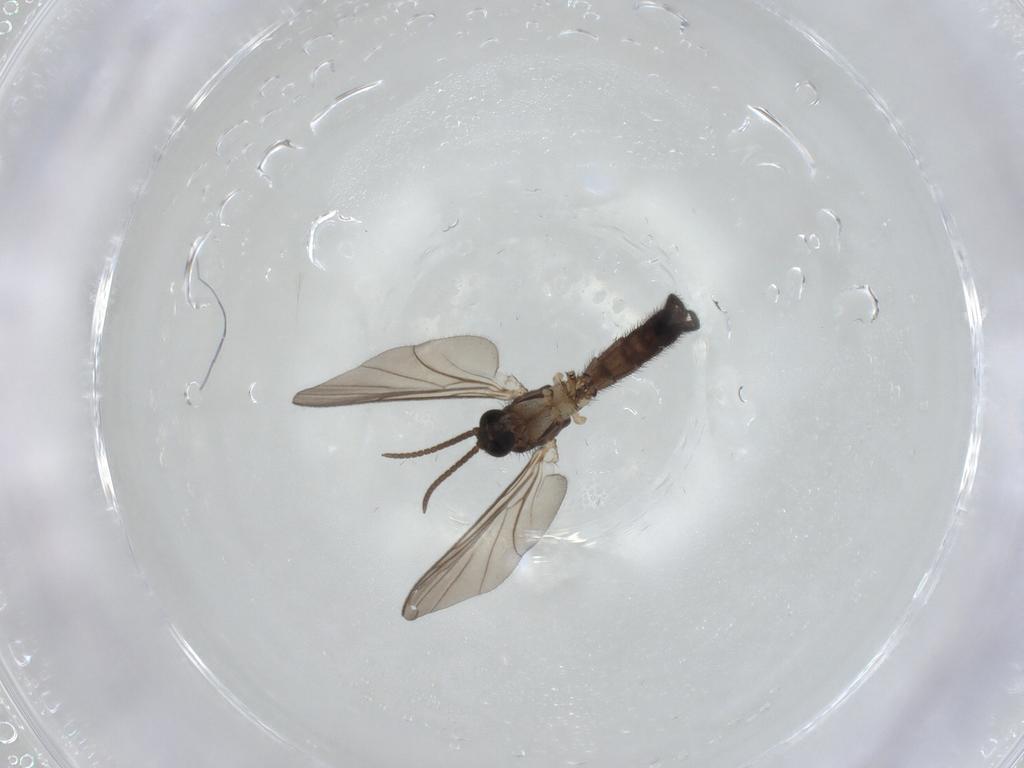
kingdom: Animalia
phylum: Arthropoda
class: Insecta
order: Diptera
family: Keroplatidae
